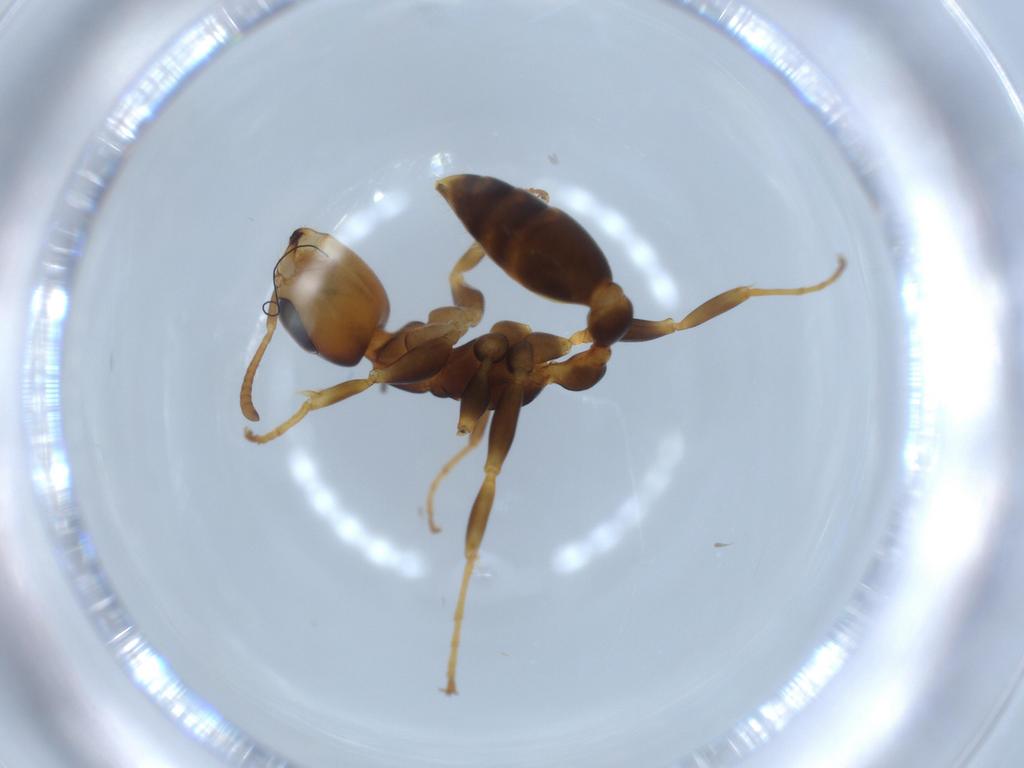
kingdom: Animalia
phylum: Arthropoda
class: Insecta
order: Hymenoptera
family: Formicidae
